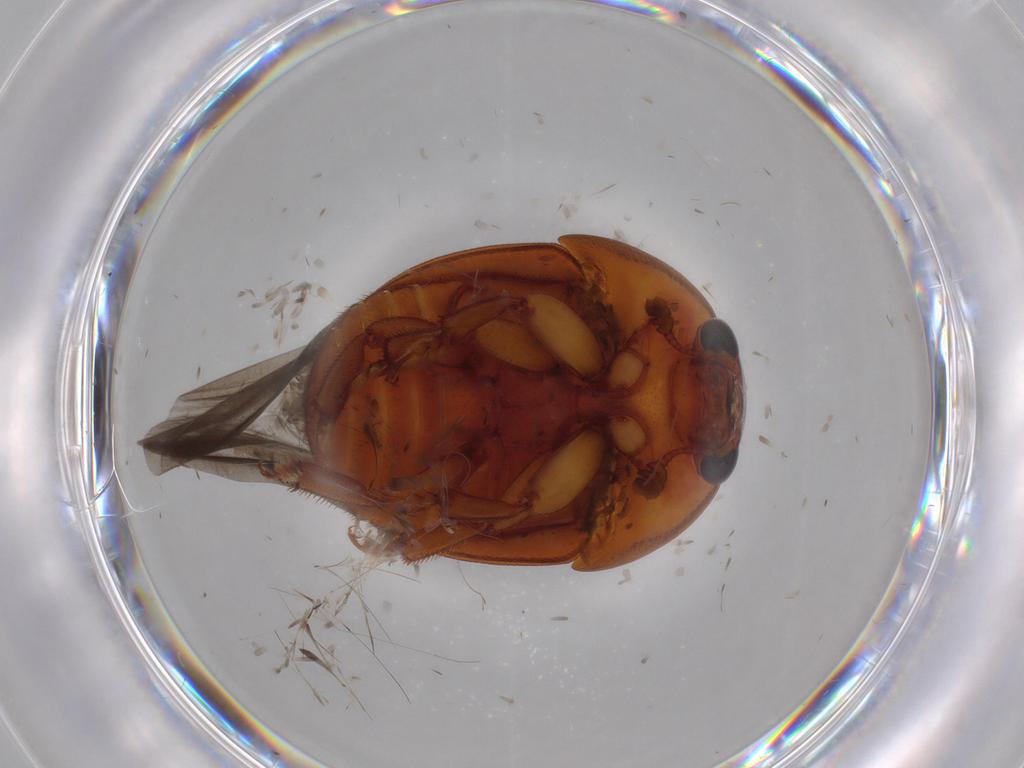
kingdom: Animalia
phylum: Arthropoda
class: Insecta
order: Coleoptera
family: Nitidulidae
